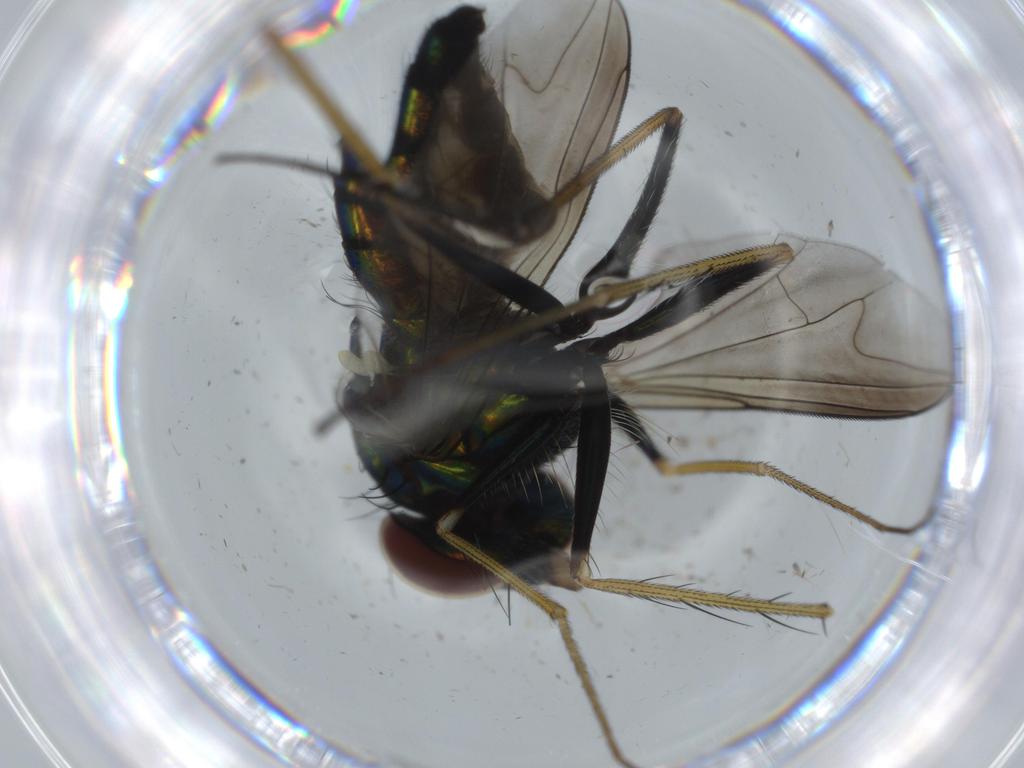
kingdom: Animalia
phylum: Arthropoda
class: Insecta
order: Diptera
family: Dolichopodidae
